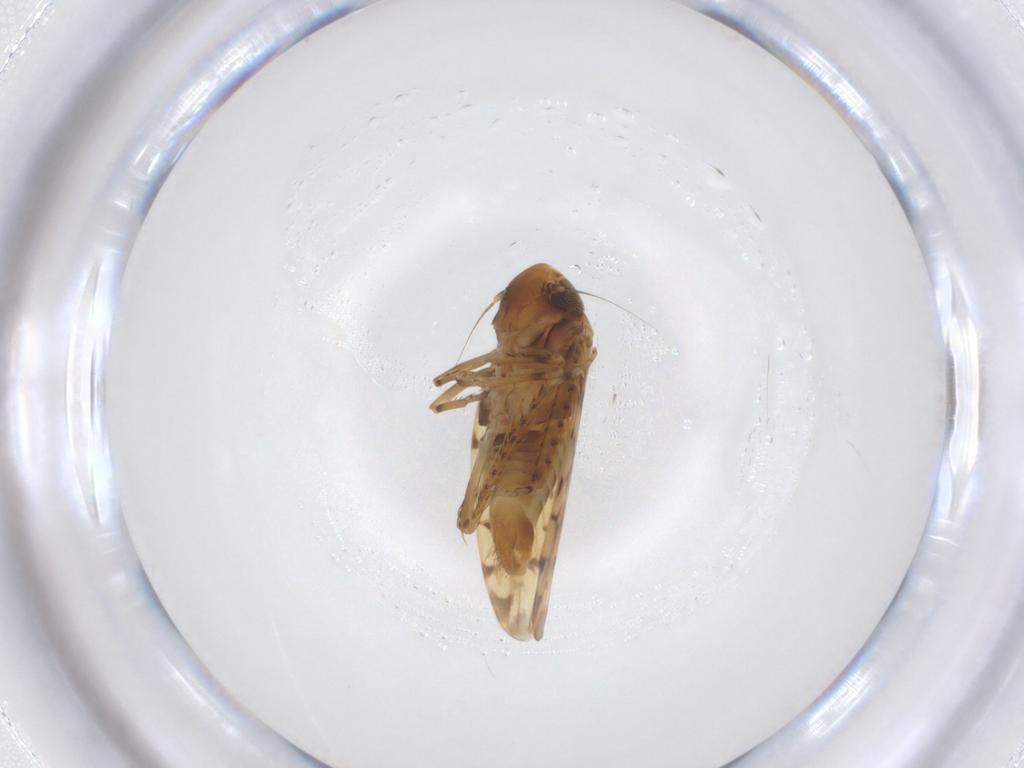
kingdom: Animalia
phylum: Arthropoda
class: Insecta
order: Hemiptera
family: Cicadellidae
